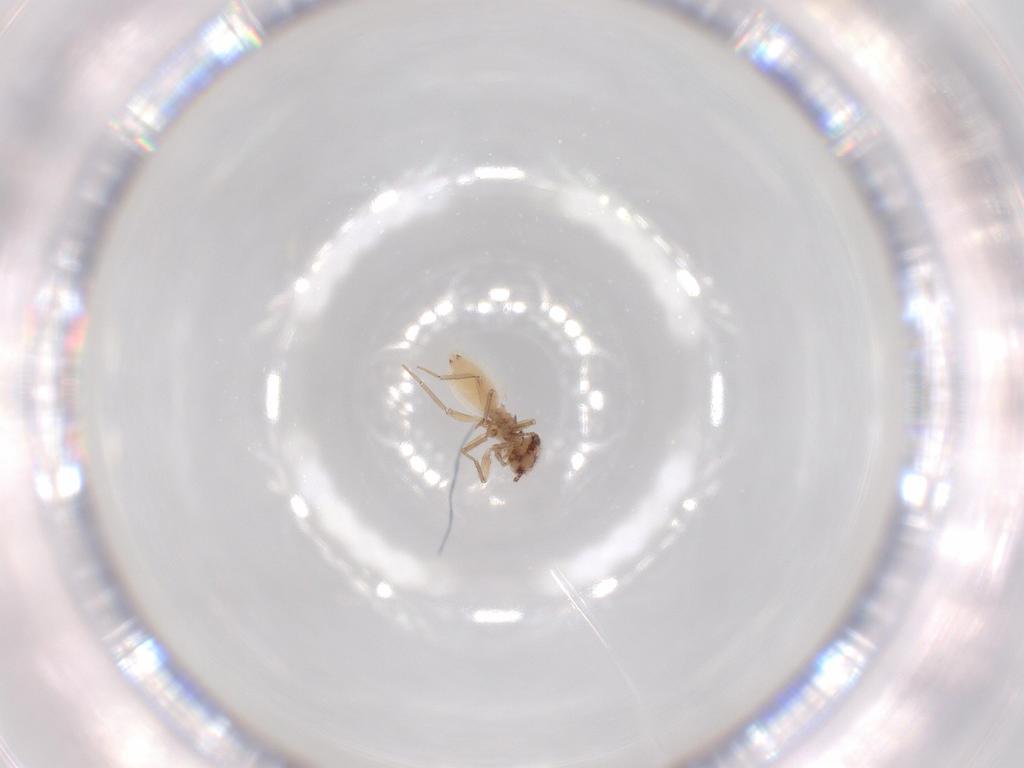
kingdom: Animalia
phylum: Arthropoda
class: Insecta
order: Psocodea
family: Lepidopsocidae
